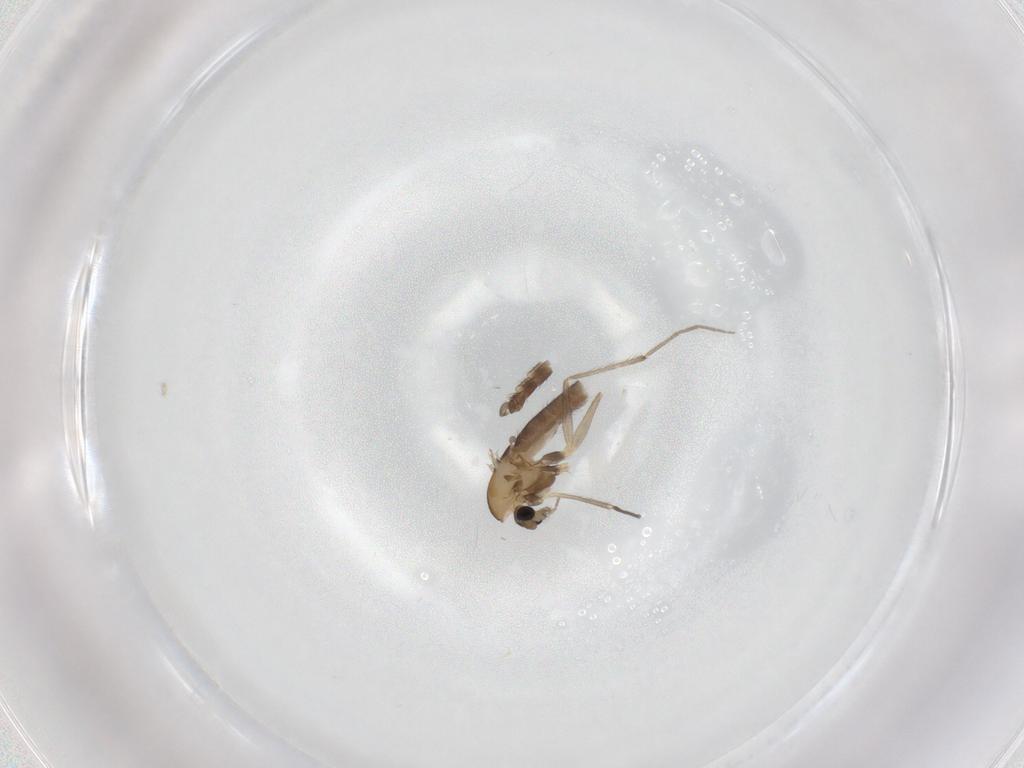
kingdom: Animalia
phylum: Arthropoda
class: Insecta
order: Diptera
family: Chironomidae
